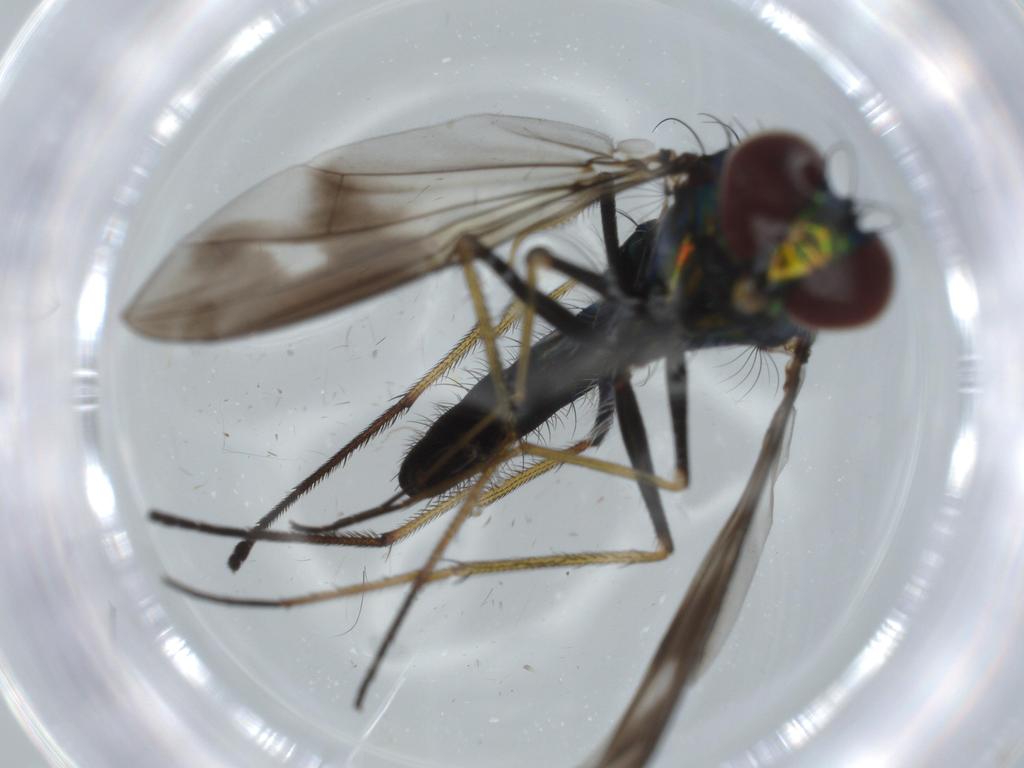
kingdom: Animalia
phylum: Arthropoda
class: Insecta
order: Diptera
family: Dolichopodidae
